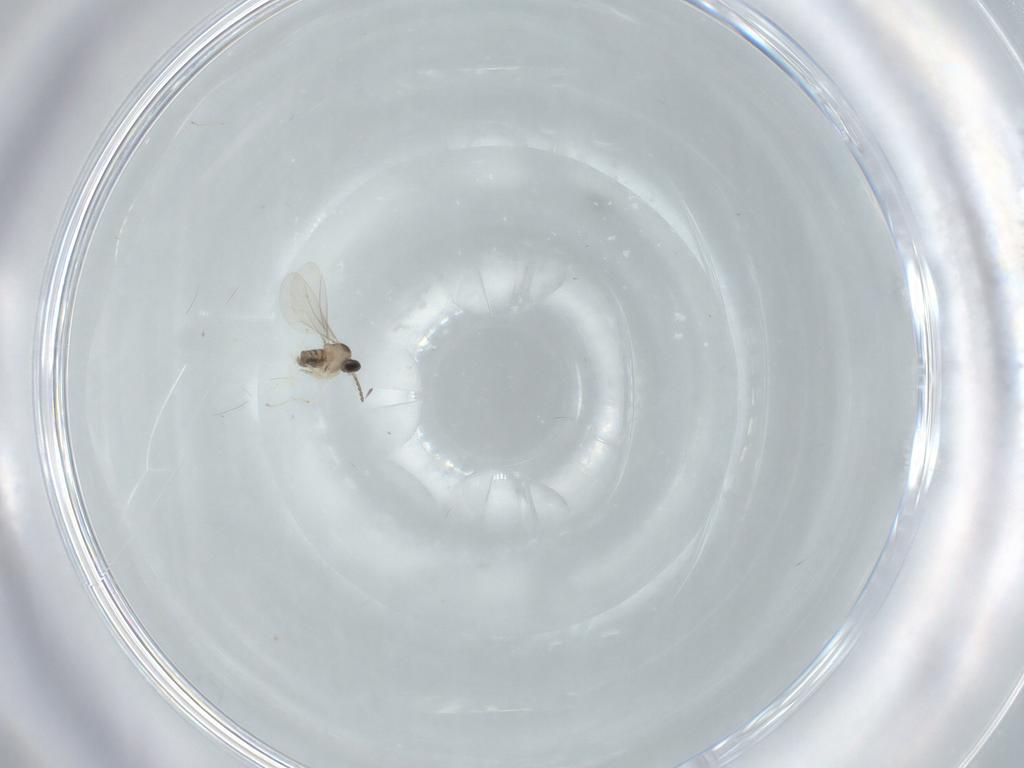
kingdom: Animalia
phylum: Arthropoda
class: Insecta
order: Diptera
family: Cecidomyiidae
